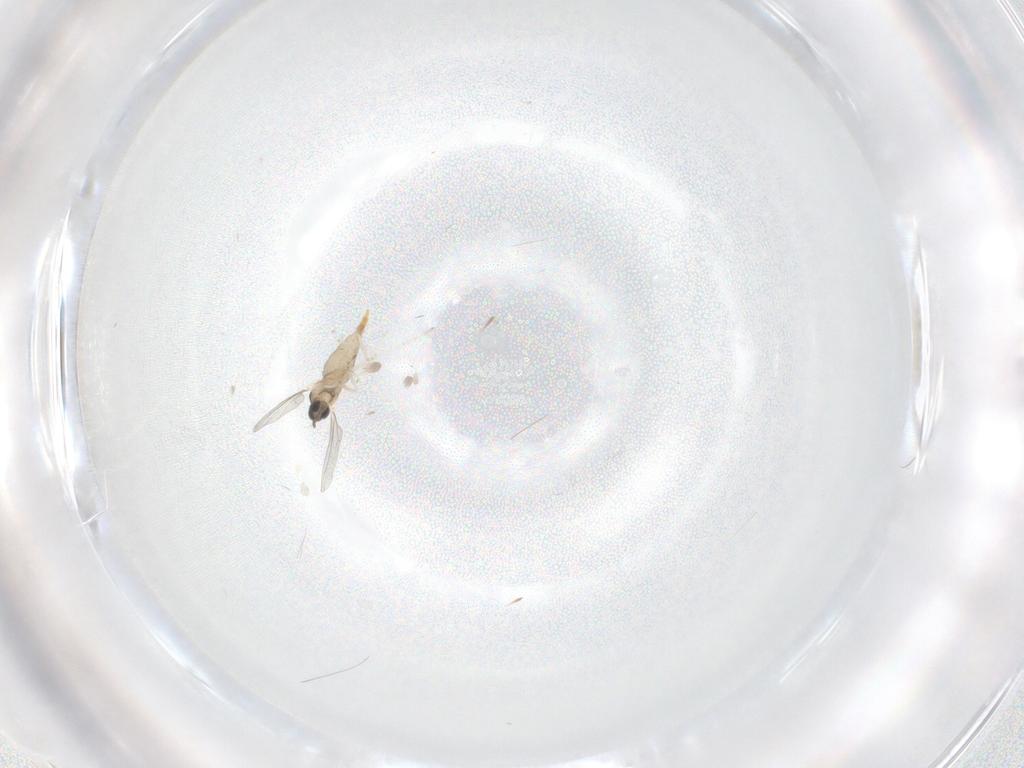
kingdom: Animalia
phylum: Arthropoda
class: Insecta
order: Diptera
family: Cecidomyiidae
